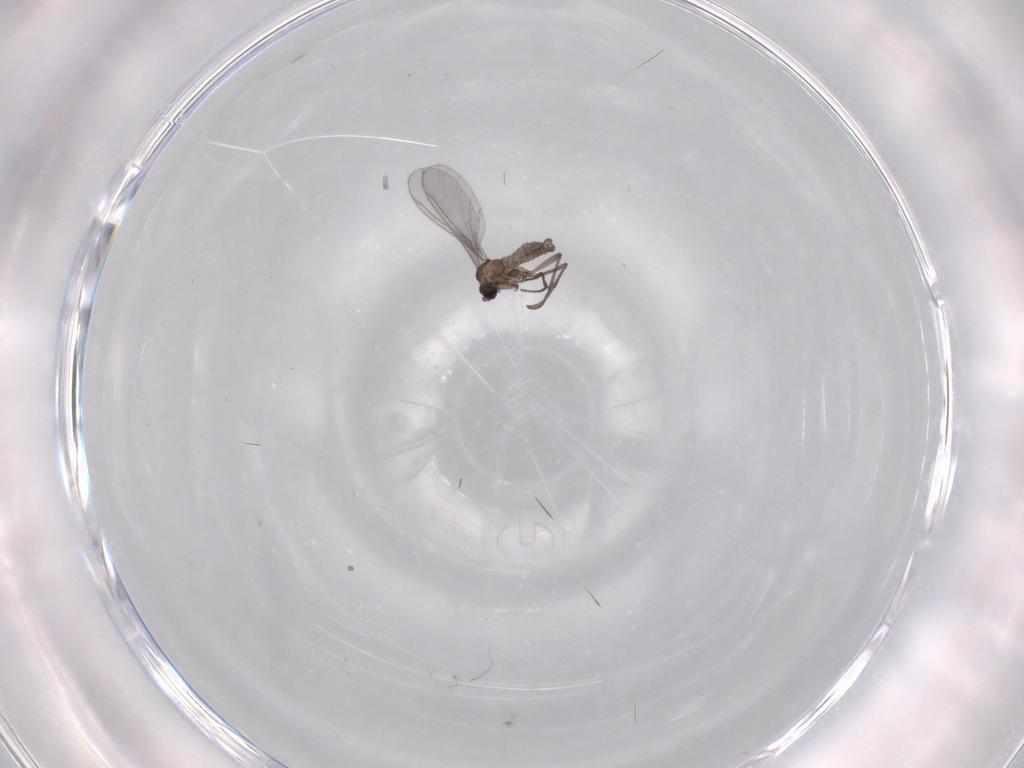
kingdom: Animalia
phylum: Arthropoda
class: Insecta
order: Diptera
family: Sciaridae
